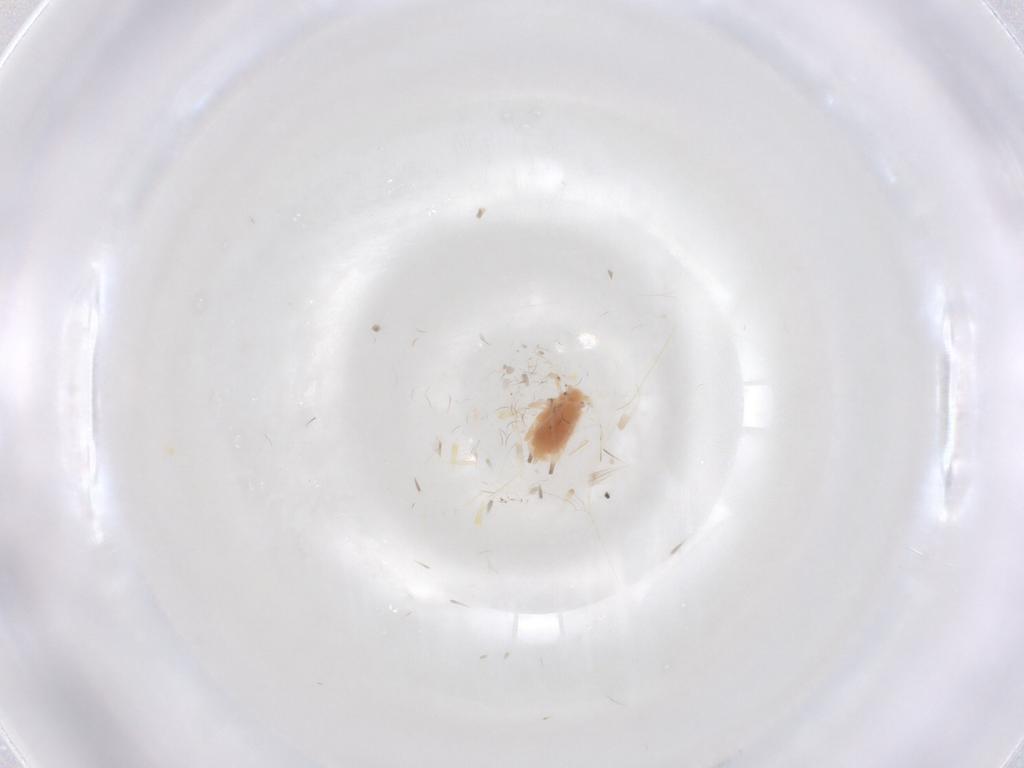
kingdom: Animalia
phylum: Arthropoda
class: Insecta
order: Hemiptera
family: Aphididae
